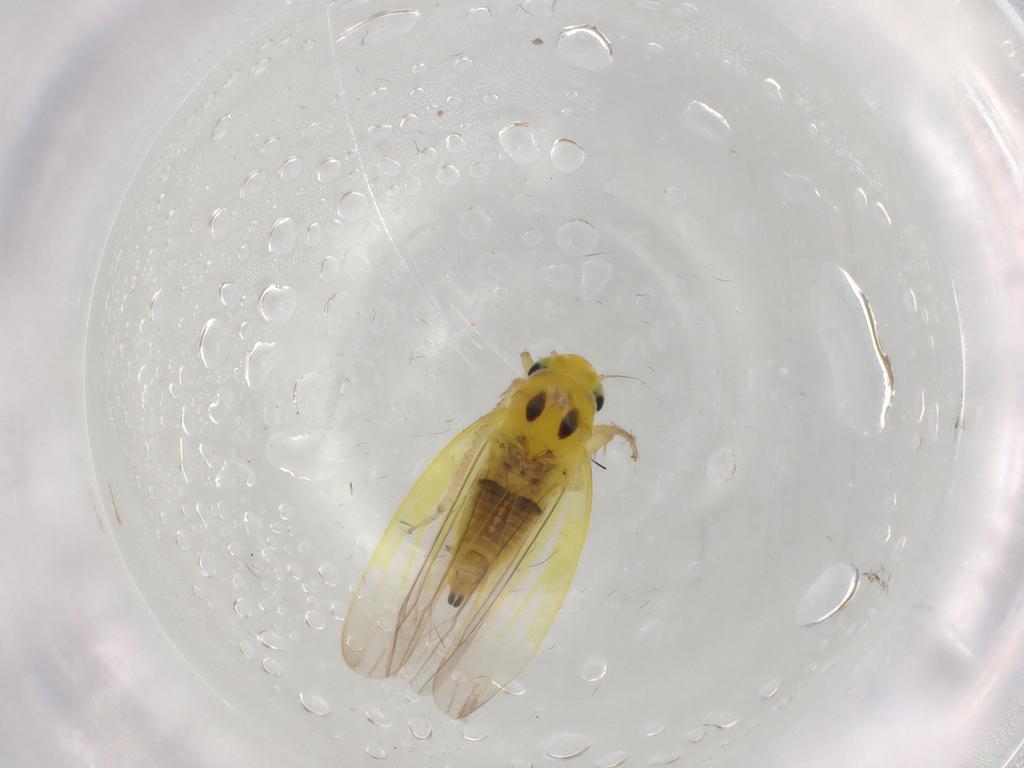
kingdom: Animalia
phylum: Arthropoda
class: Insecta
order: Hemiptera
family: Cicadellidae
